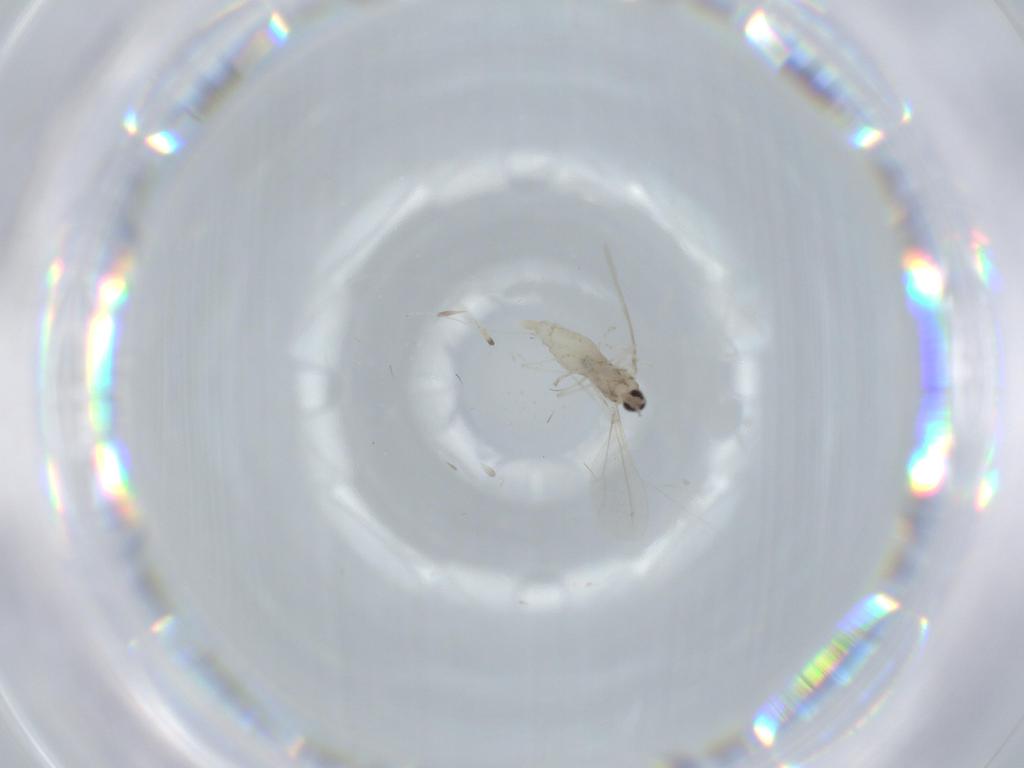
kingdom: Animalia
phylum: Arthropoda
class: Insecta
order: Diptera
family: Cecidomyiidae
